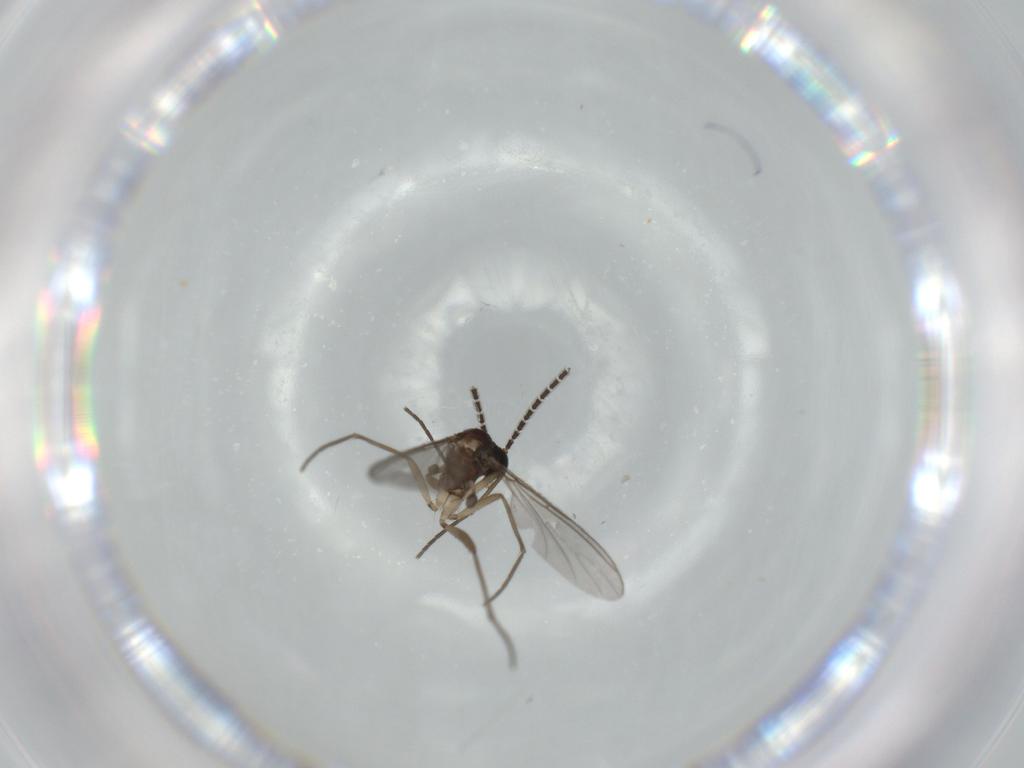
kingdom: Animalia
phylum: Arthropoda
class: Insecta
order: Diptera
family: Sciaridae
